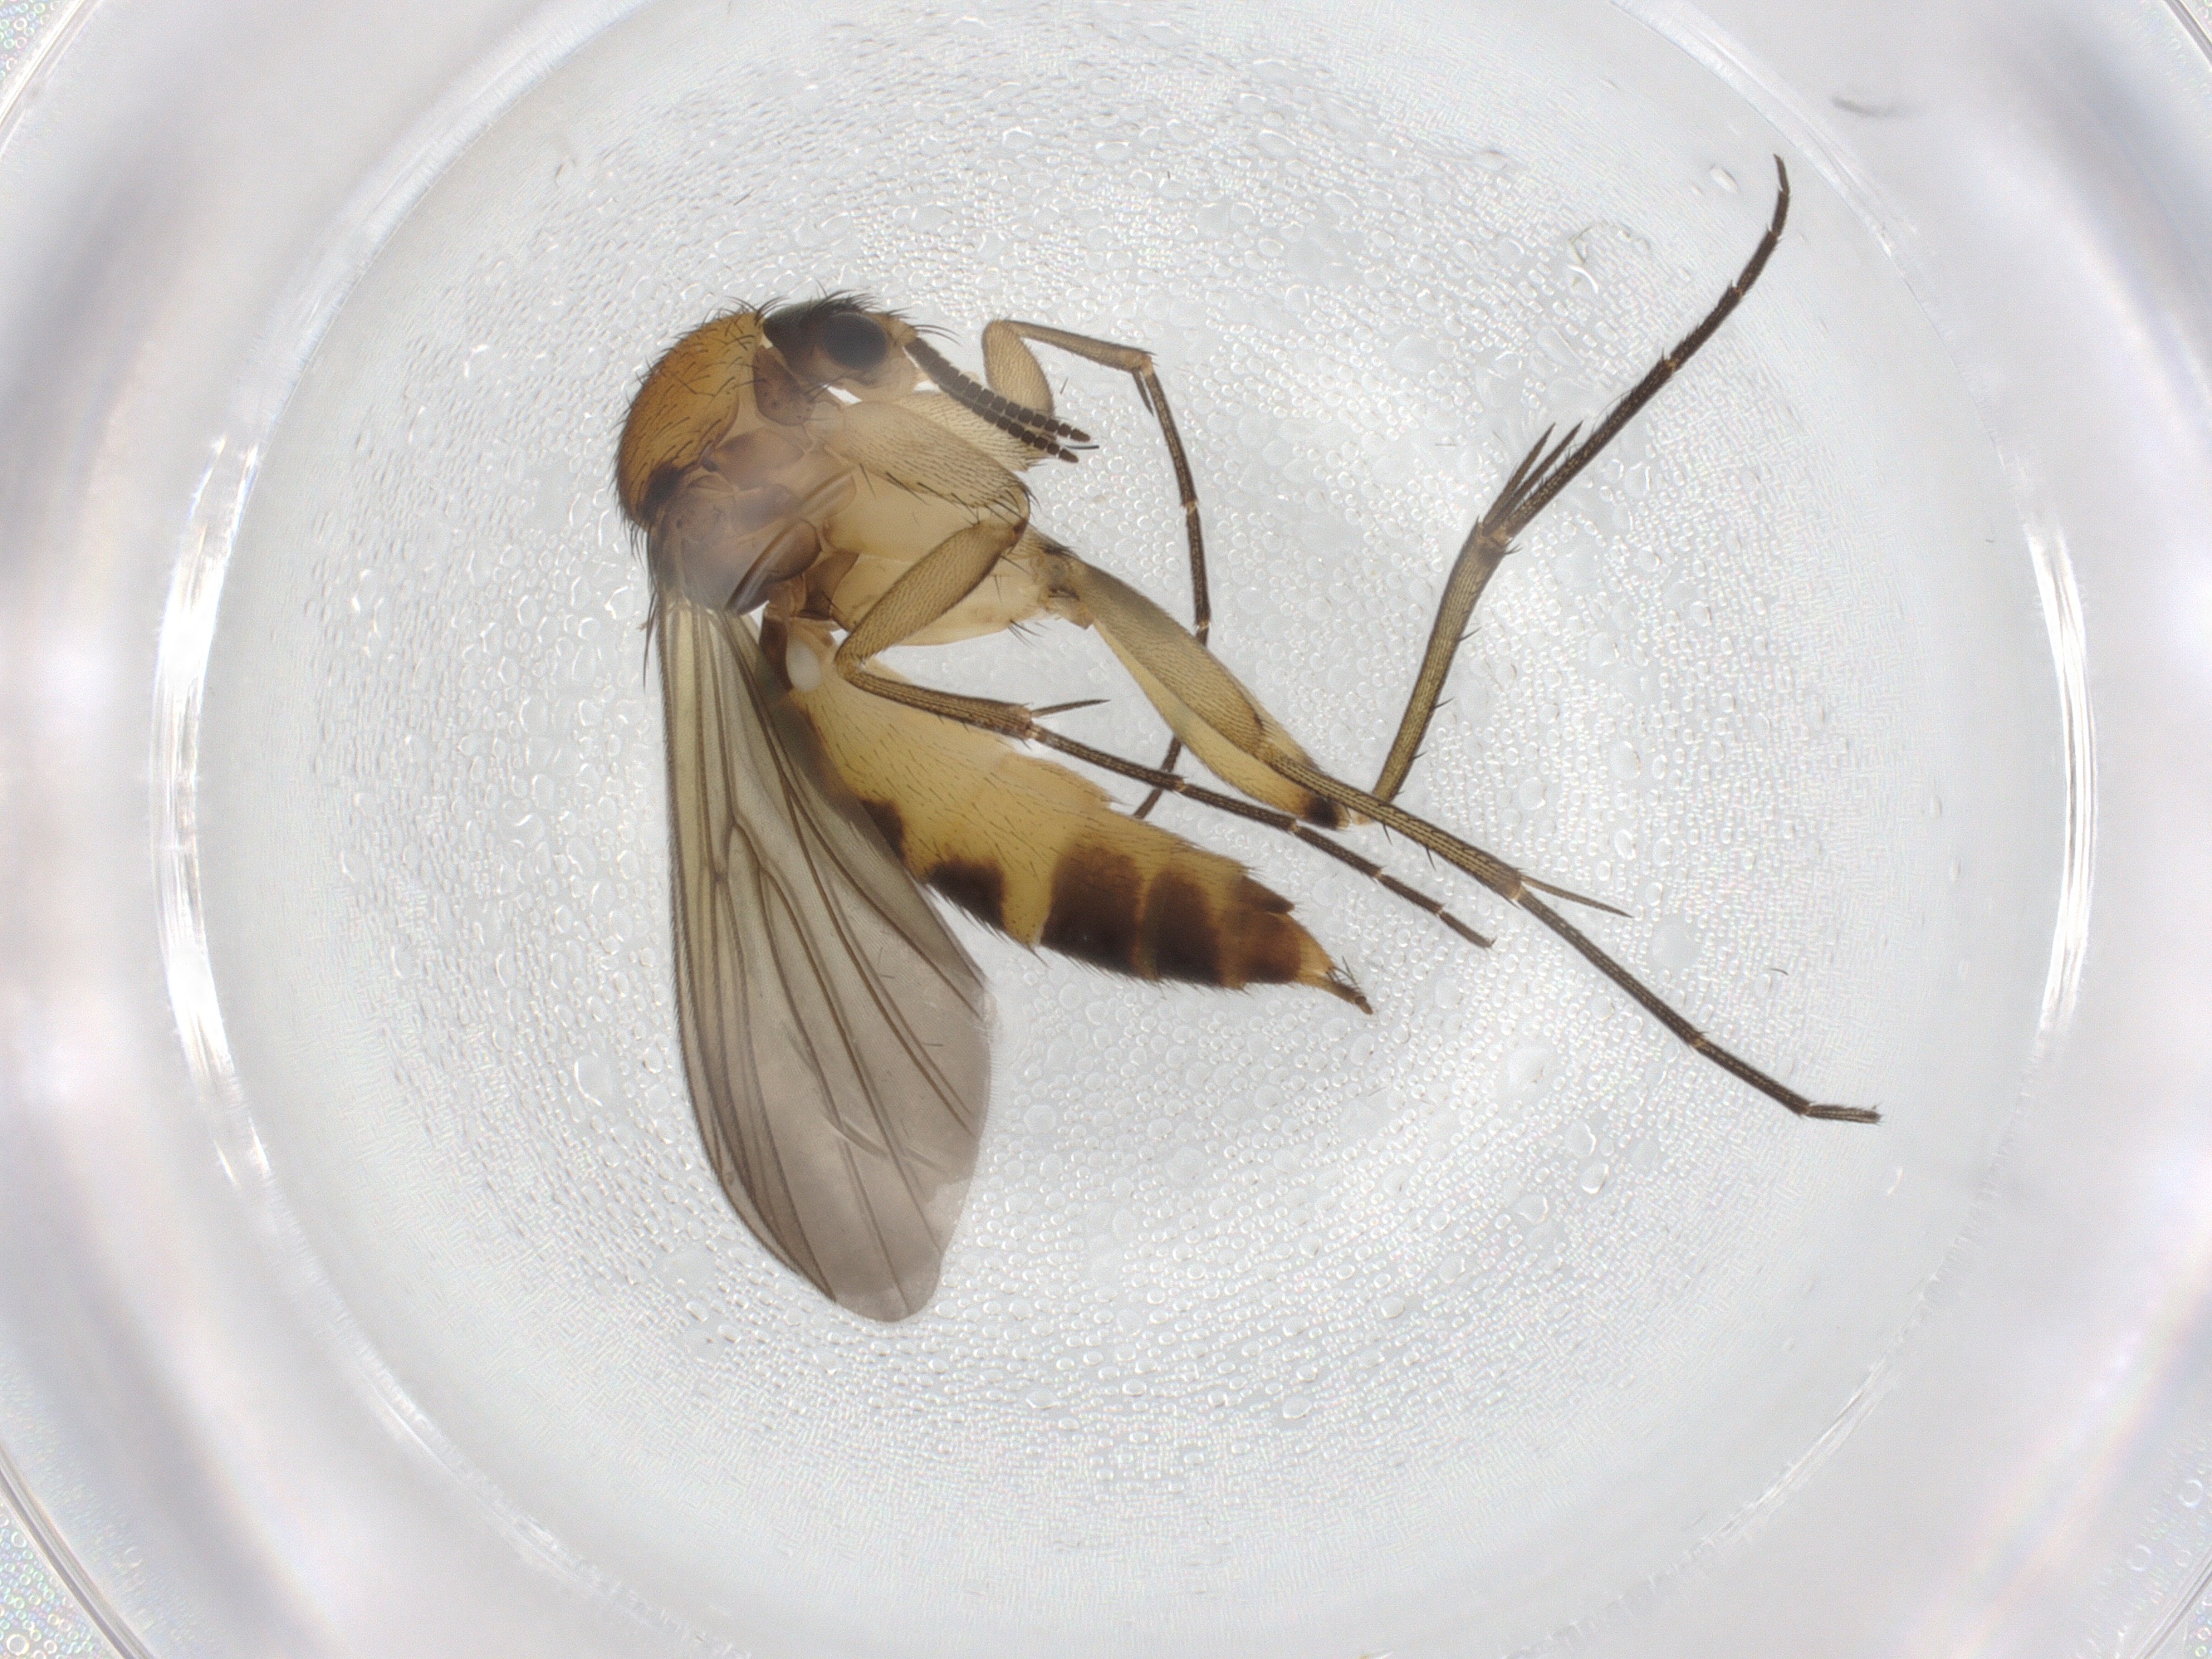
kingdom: Animalia
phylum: Arthropoda
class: Insecta
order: Diptera
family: Mycetophilidae
